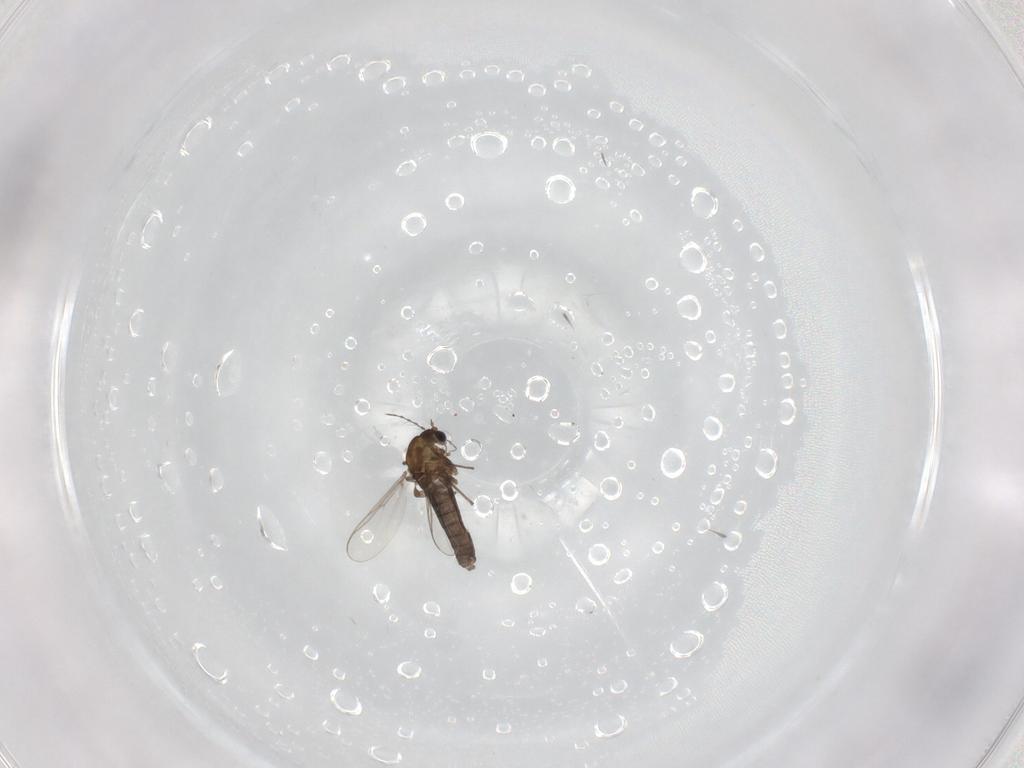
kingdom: Animalia
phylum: Arthropoda
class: Insecta
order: Diptera
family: Chironomidae
